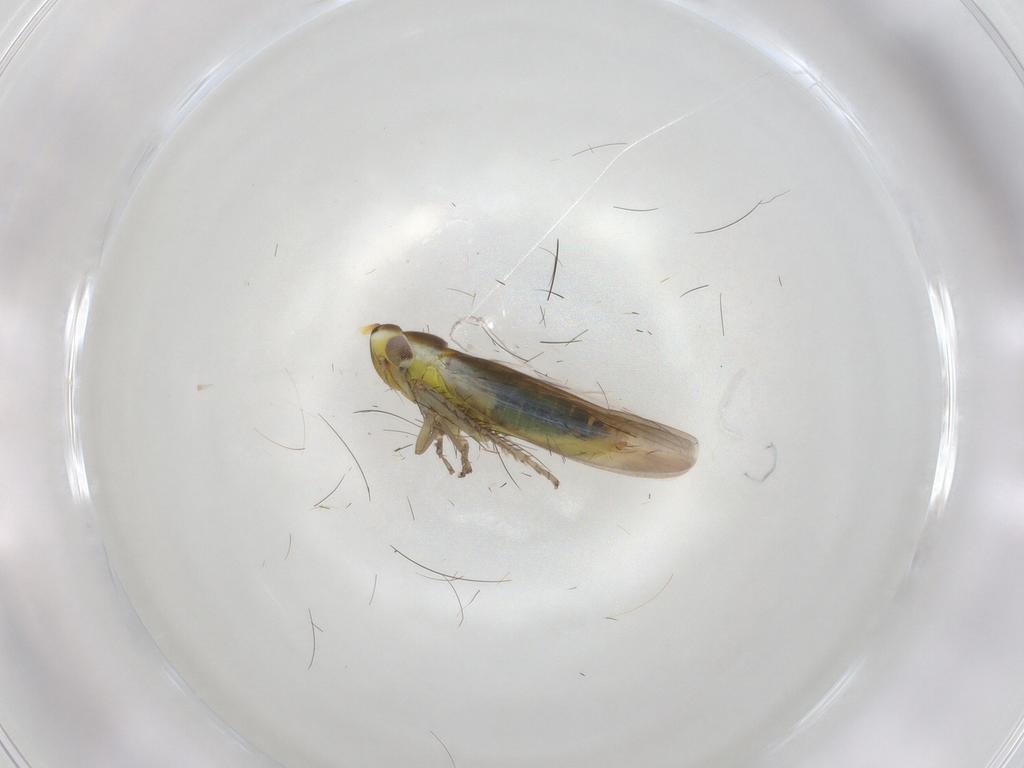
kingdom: Animalia
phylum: Arthropoda
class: Insecta
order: Hemiptera
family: Cicadellidae
